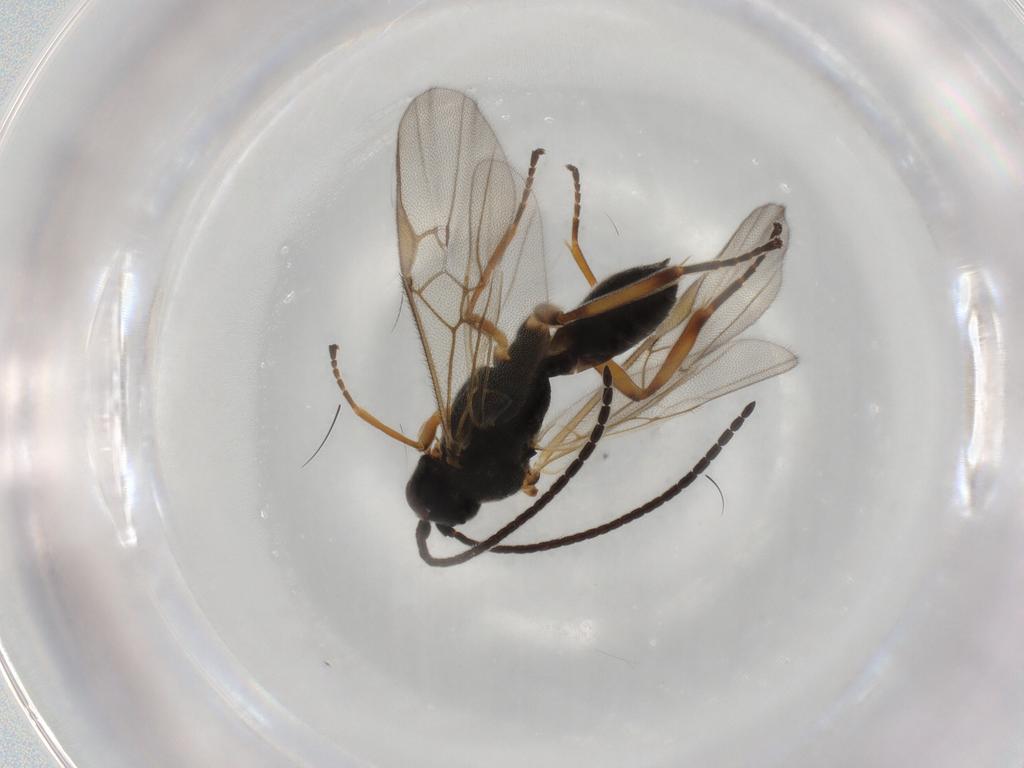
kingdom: Animalia
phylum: Arthropoda
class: Insecta
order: Hymenoptera
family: Braconidae
